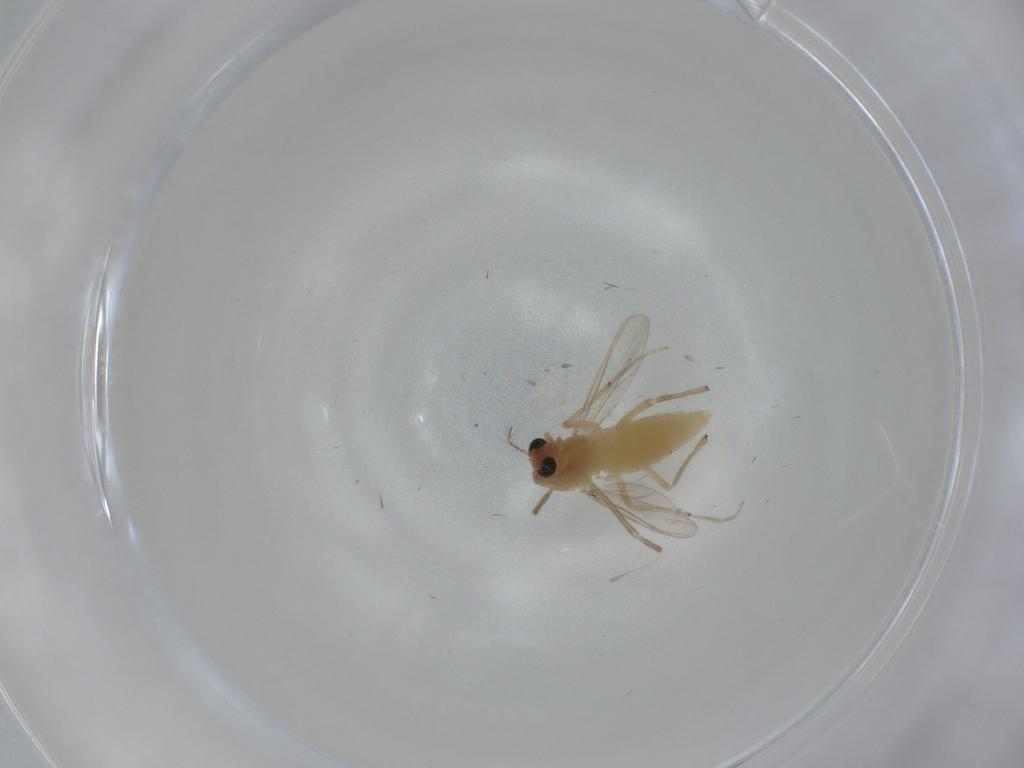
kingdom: Animalia
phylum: Arthropoda
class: Insecta
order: Diptera
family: Chironomidae
